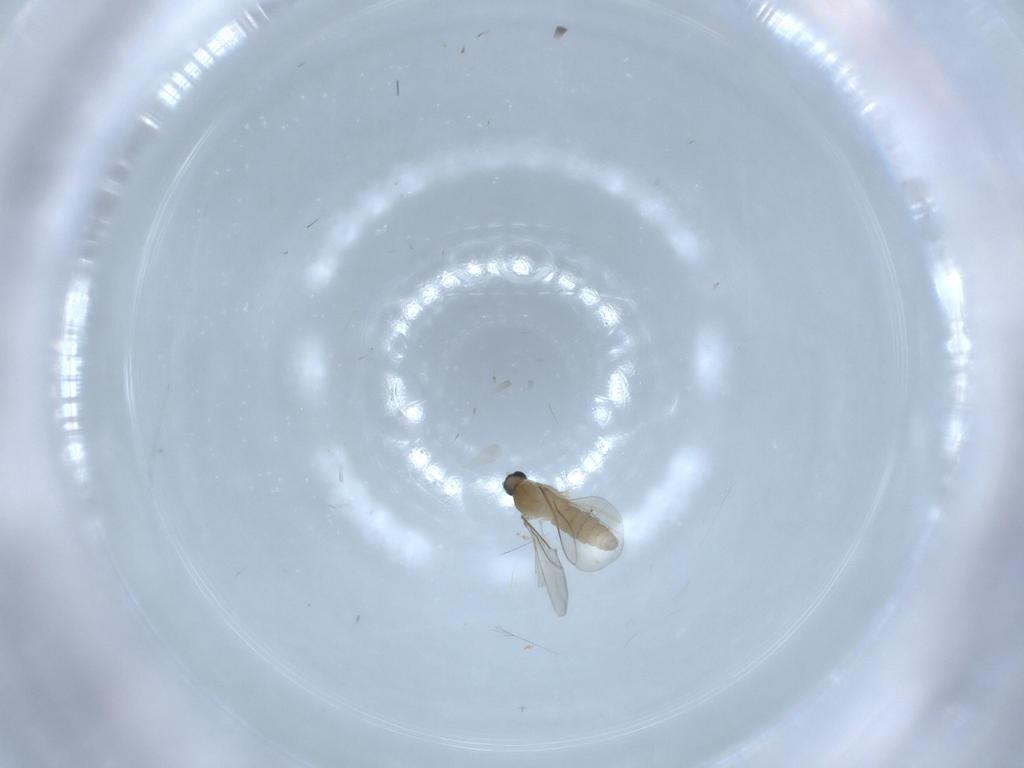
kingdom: Animalia
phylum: Arthropoda
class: Insecta
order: Diptera
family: Cecidomyiidae
